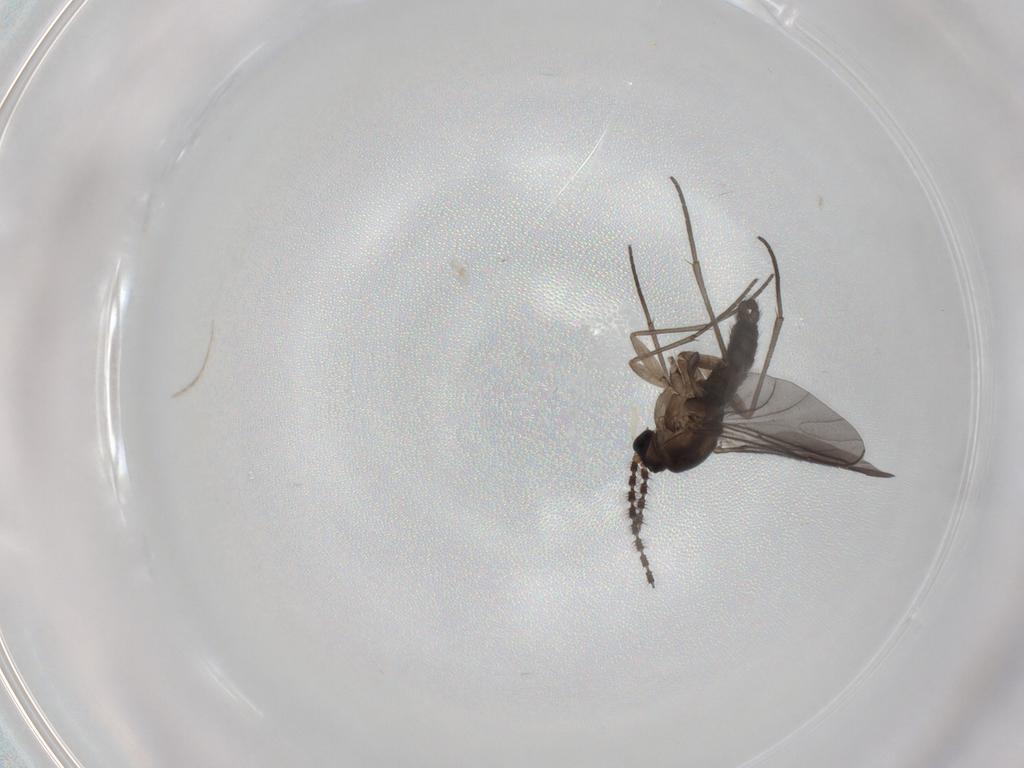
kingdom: Animalia
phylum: Arthropoda
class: Insecta
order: Diptera
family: Sciaridae
